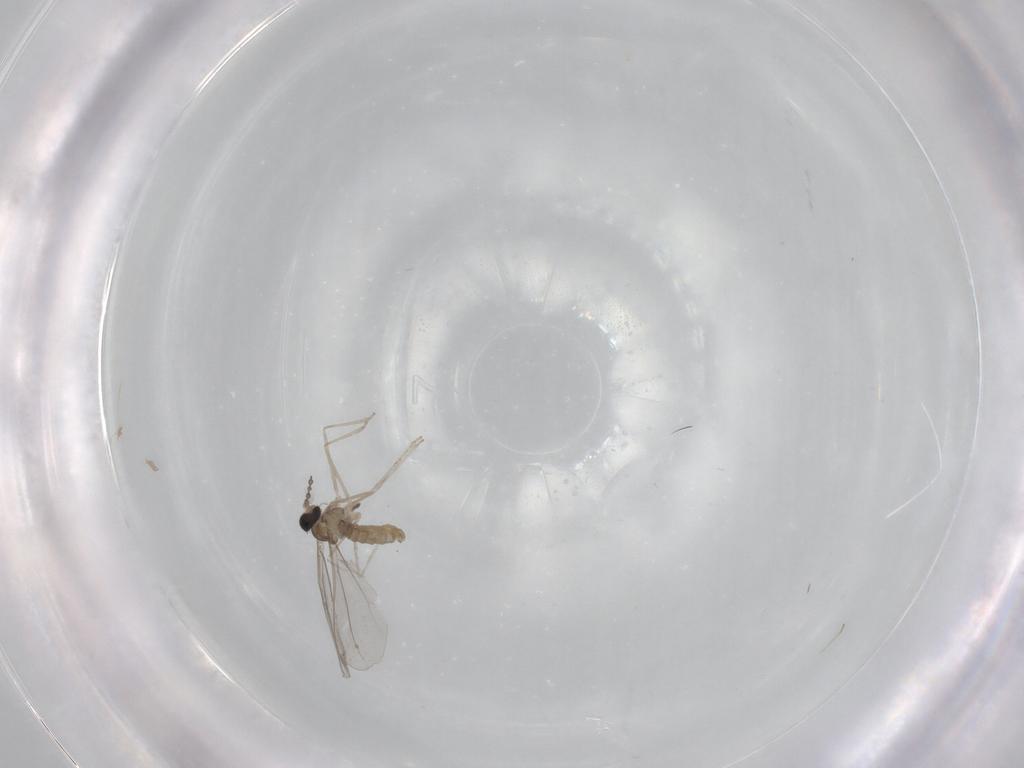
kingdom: Animalia
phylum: Arthropoda
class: Insecta
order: Diptera
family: Cecidomyiidae
